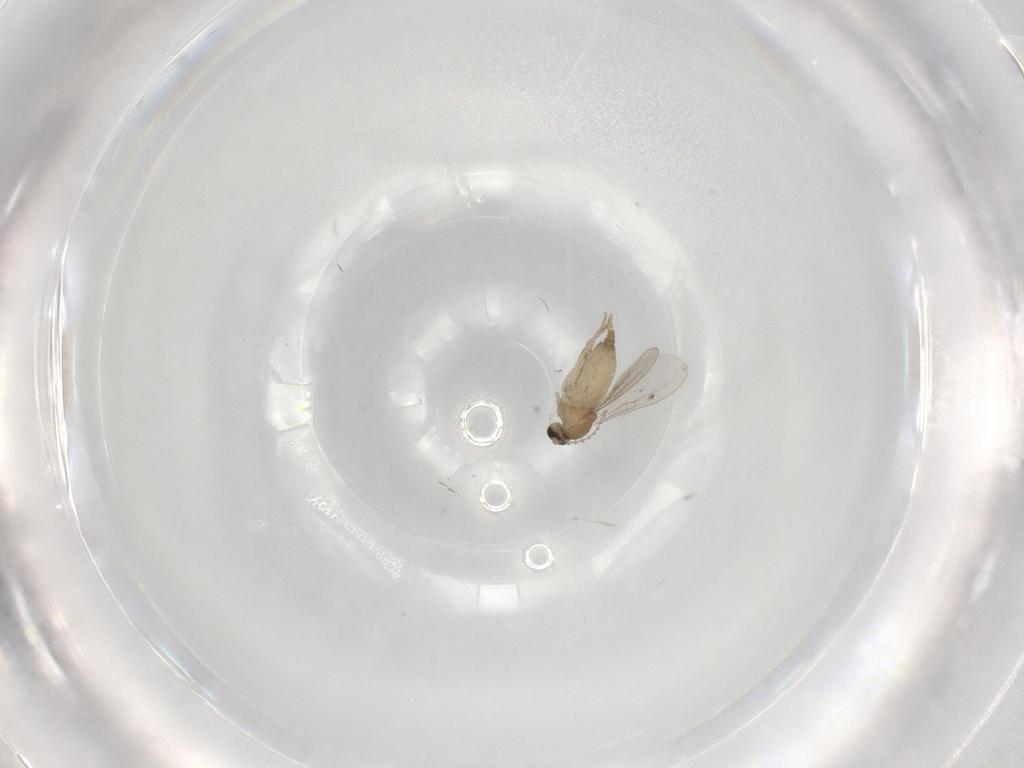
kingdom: Animalia
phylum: Arthropoda
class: Insecta
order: Diptera
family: Cecidomyiidae
